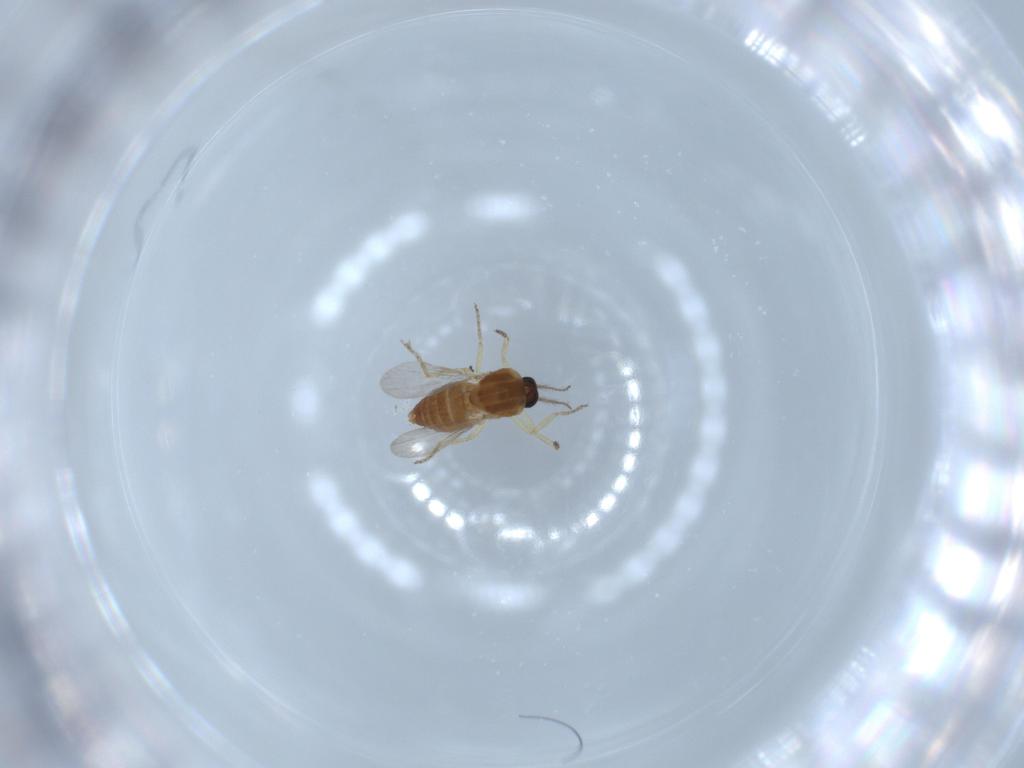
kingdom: Animalia
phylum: Arthropoda
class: Insecta
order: Diptera
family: Ceratopogonidae
